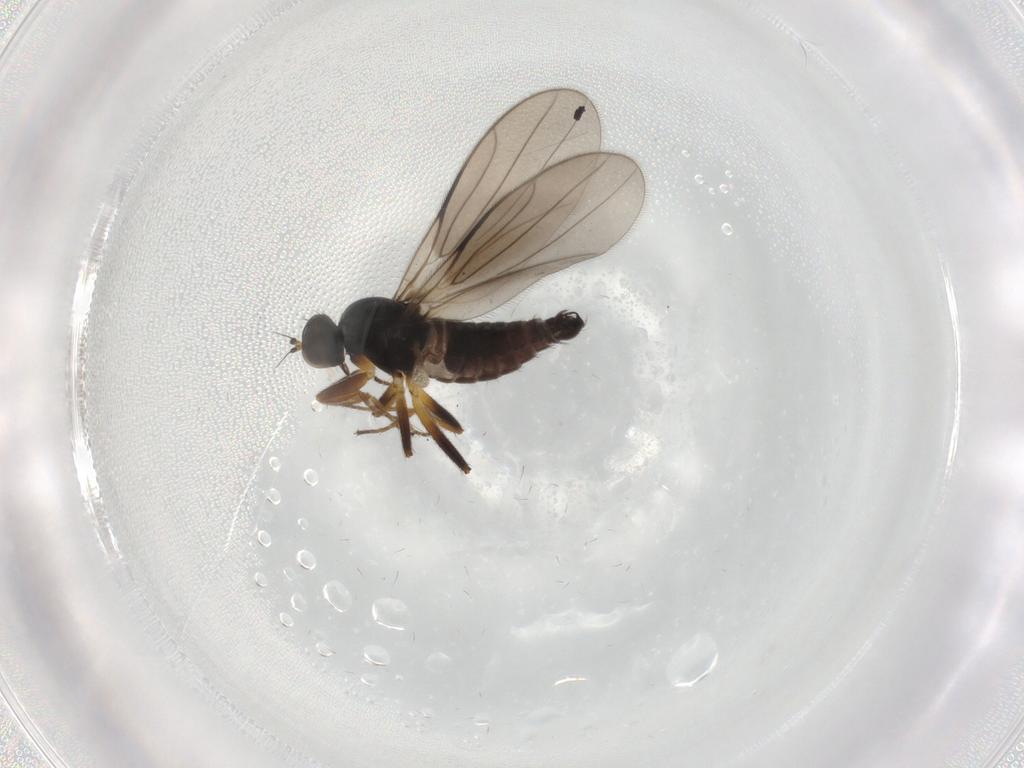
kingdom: Animalia
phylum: Arthropoda
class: Insecta
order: Diptera
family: Hybotidae
